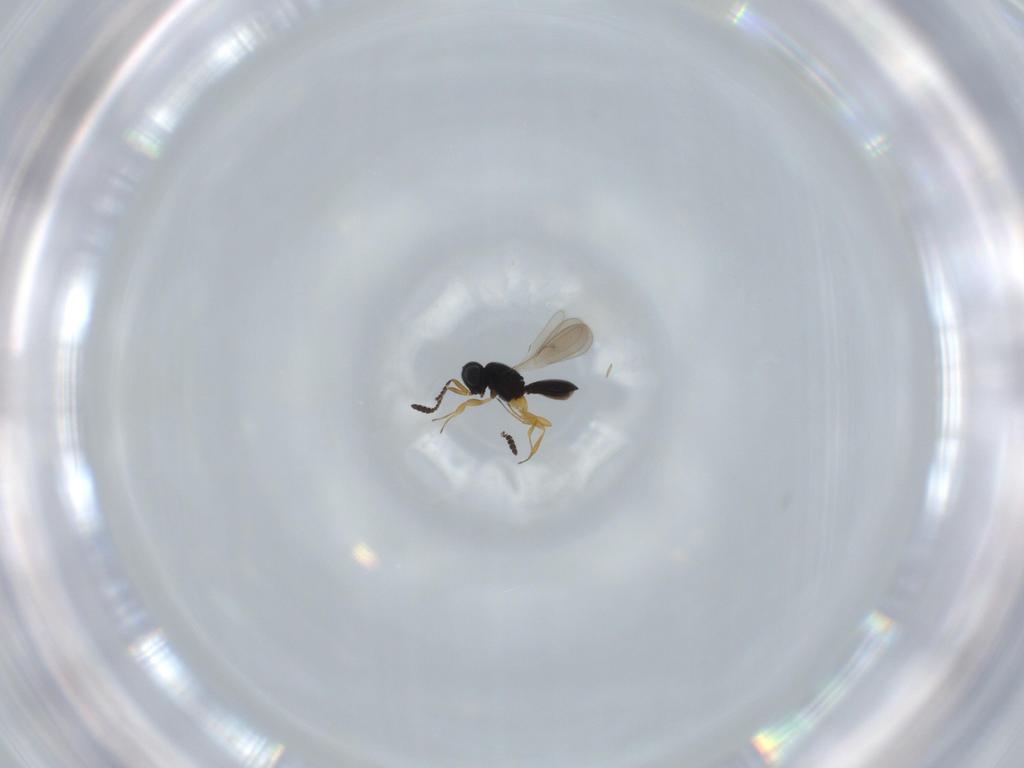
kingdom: Animalia
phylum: Arthropoda
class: Insecta
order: Hymenoptera
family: Scelionidae
